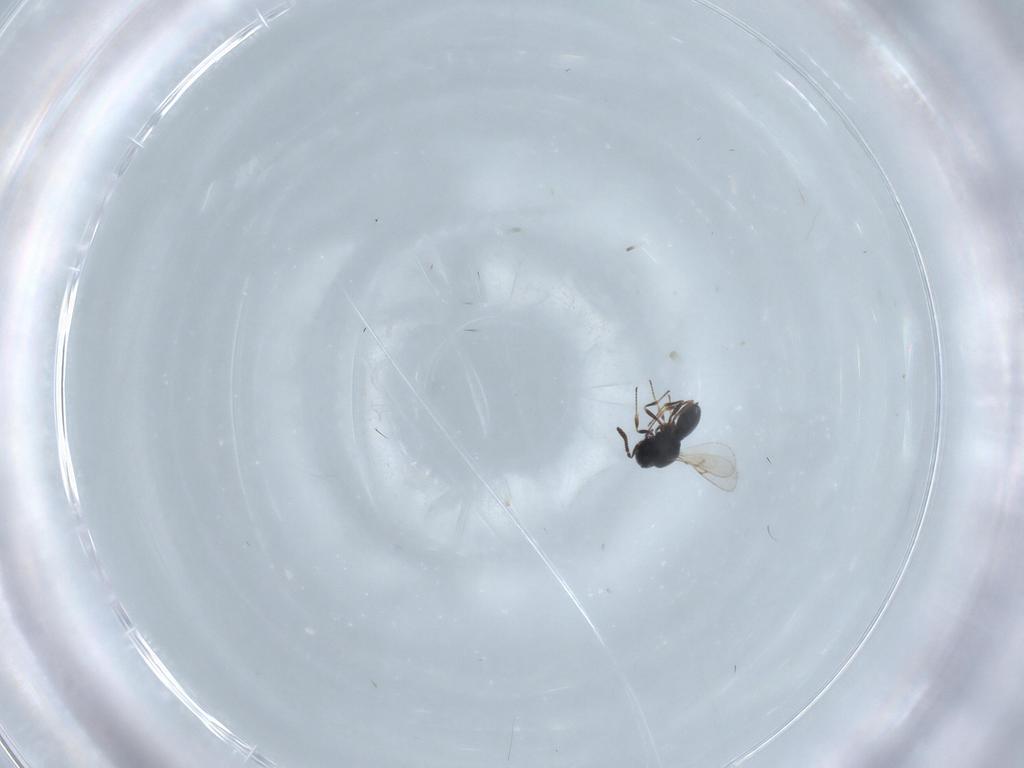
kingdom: Animalia
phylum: Arthropoda
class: Insecta
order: Hymenoptera
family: Scelionidae
